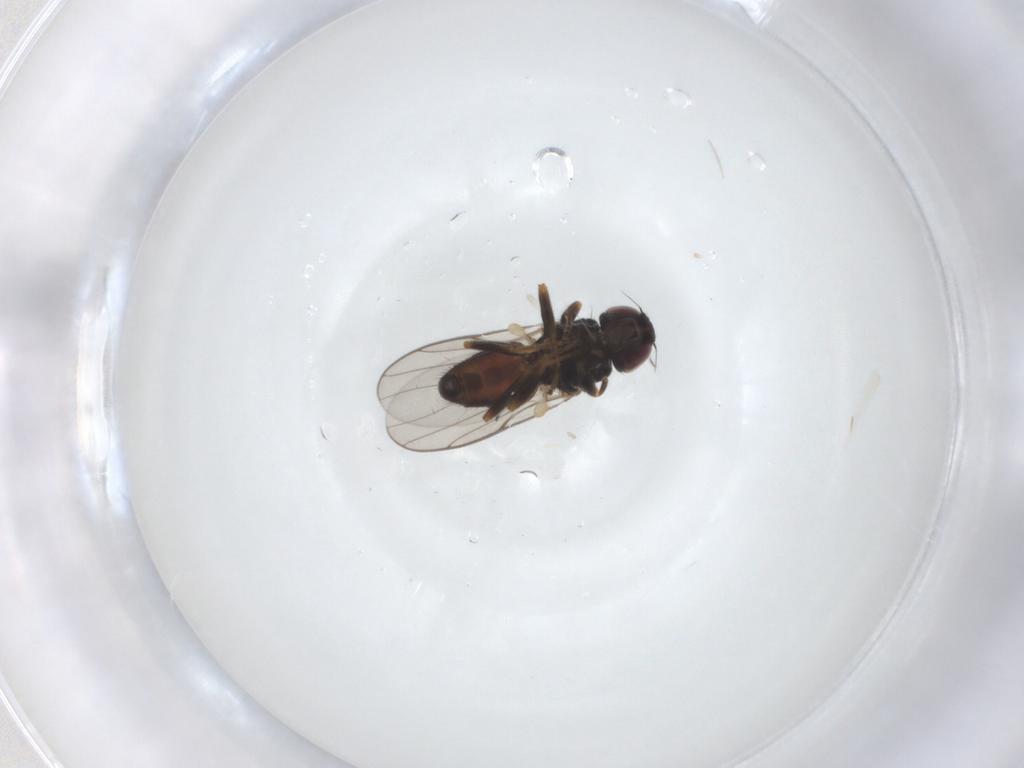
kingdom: Animalia
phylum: Arthropoda
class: Insecta
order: Diptera
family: Chloropidae
